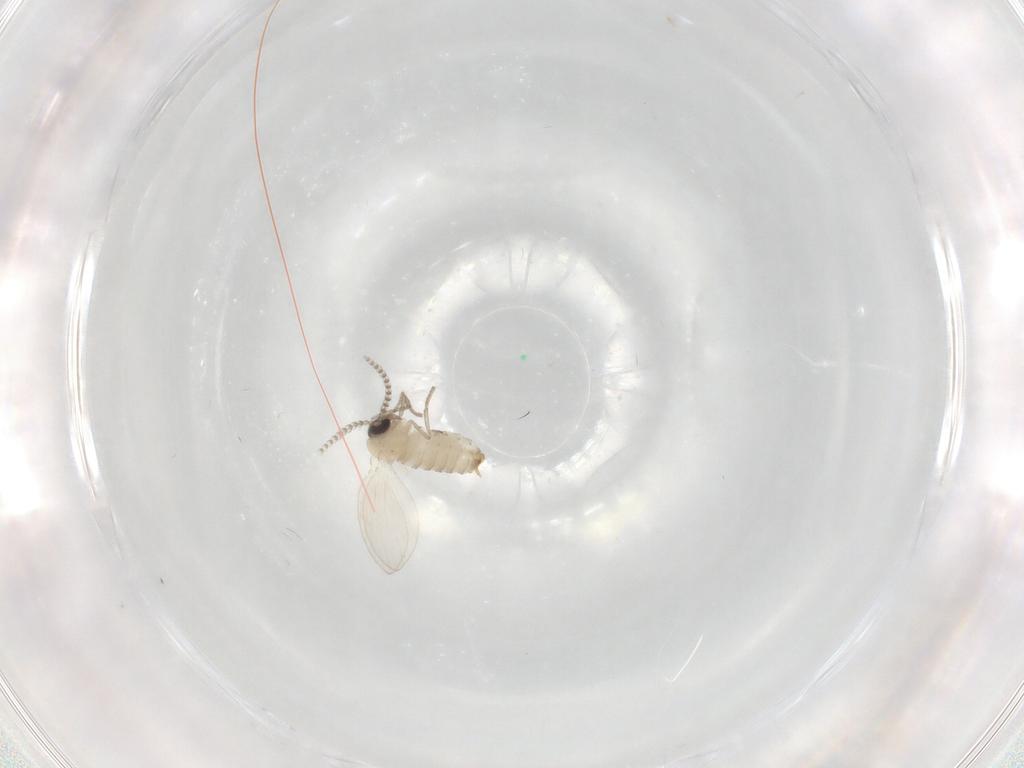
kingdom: Animalia
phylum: Arthropoda
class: Insecta
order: Diptera
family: Psychodidae
